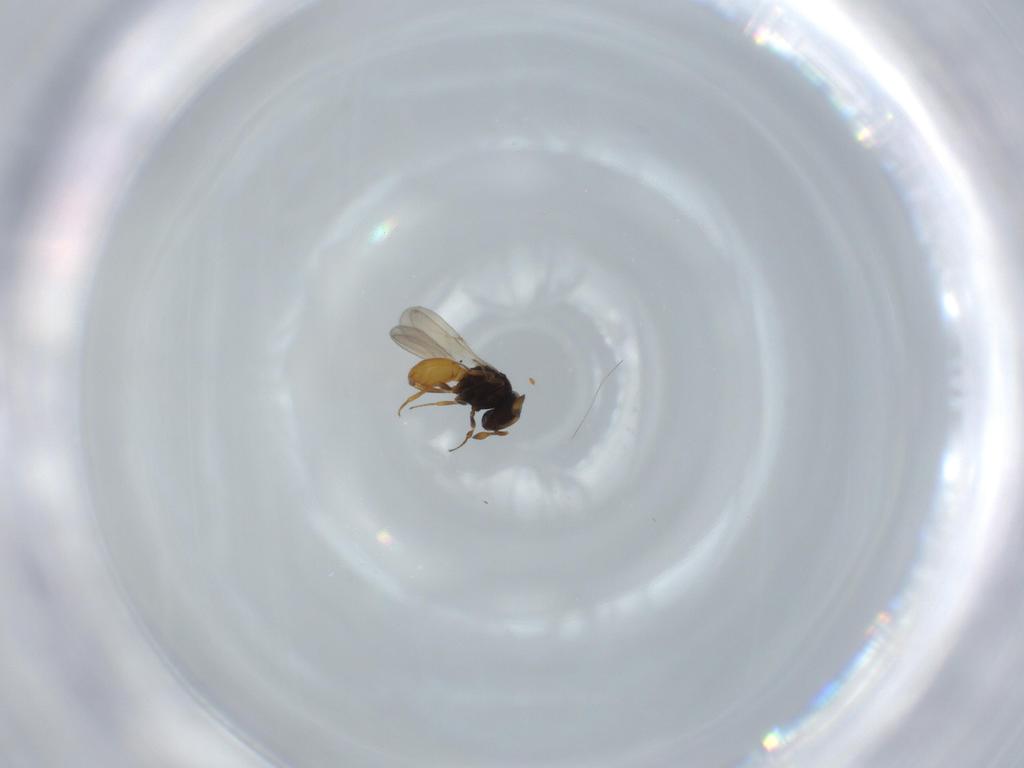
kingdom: Animalia
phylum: Arthropoda
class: Insecta
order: Hymenoptera
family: Scelionidae
